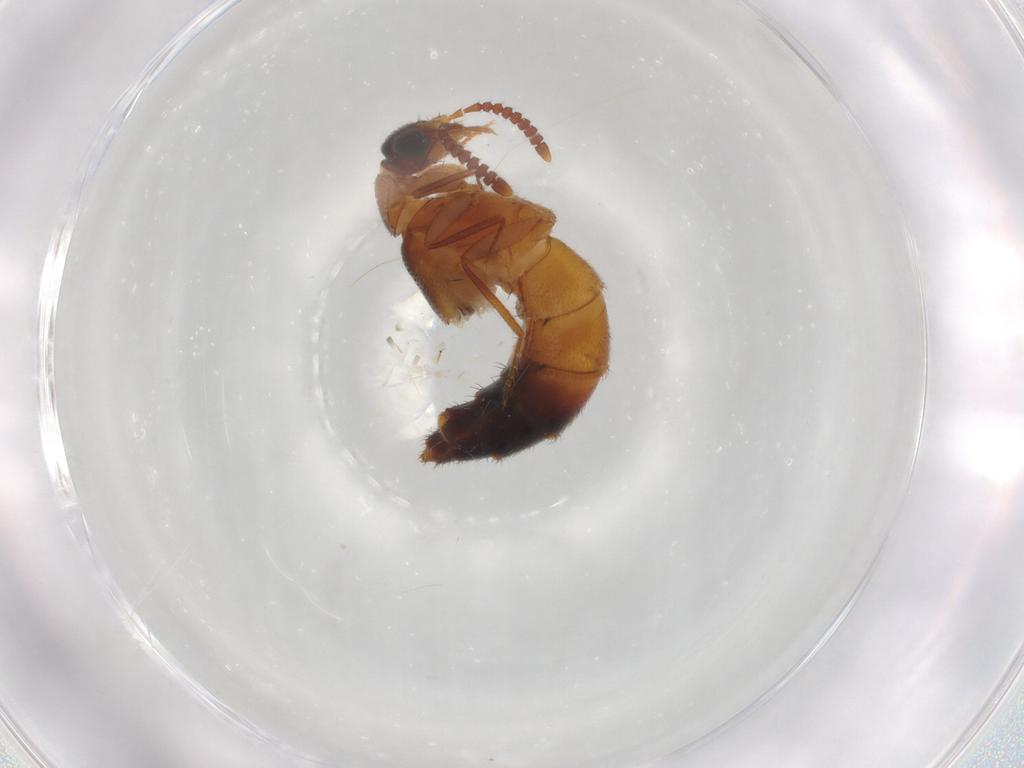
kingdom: Animalia
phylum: Arthropoda
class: Insecta
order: Coleoptera
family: Staphylinidae
